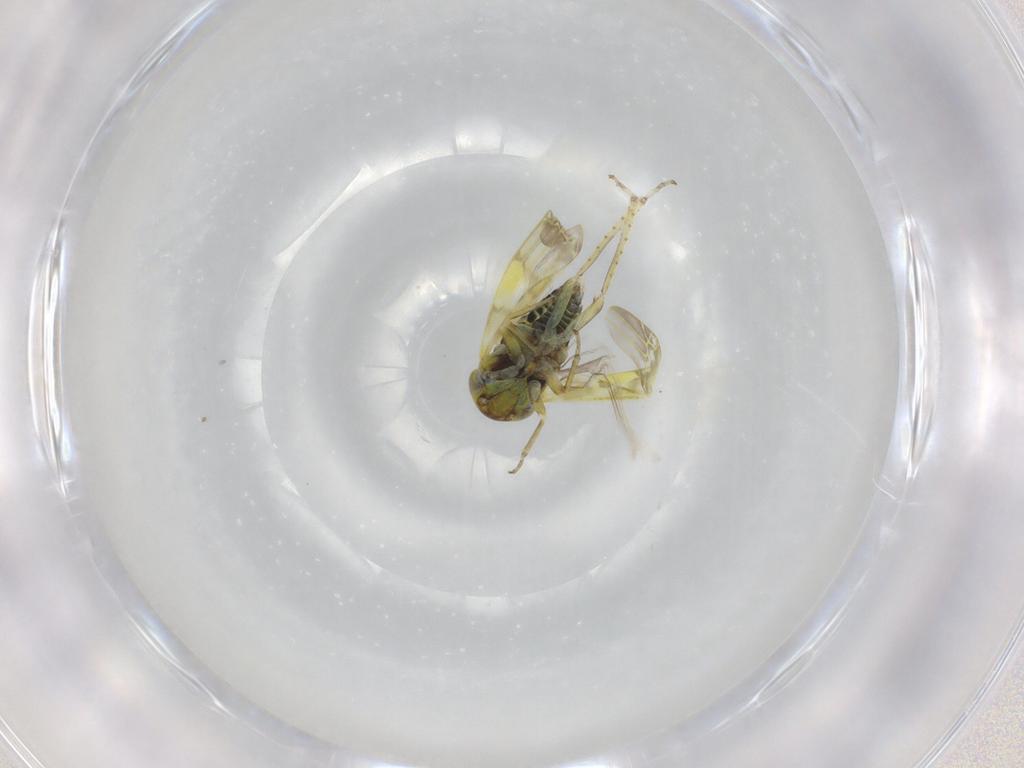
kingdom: Animalia
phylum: Arthropoda
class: Insecta
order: Hemiptera
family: Cicadellidae
